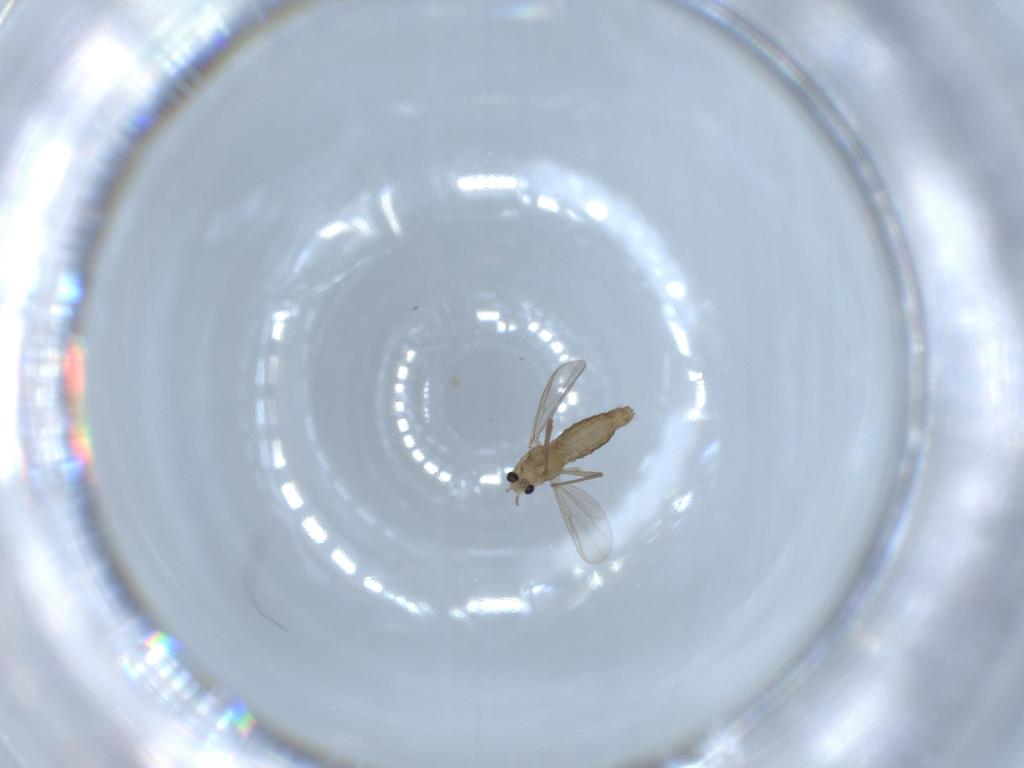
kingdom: Animalia
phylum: Arthropoda
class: Insecta
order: Diptera
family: Chironomidae
